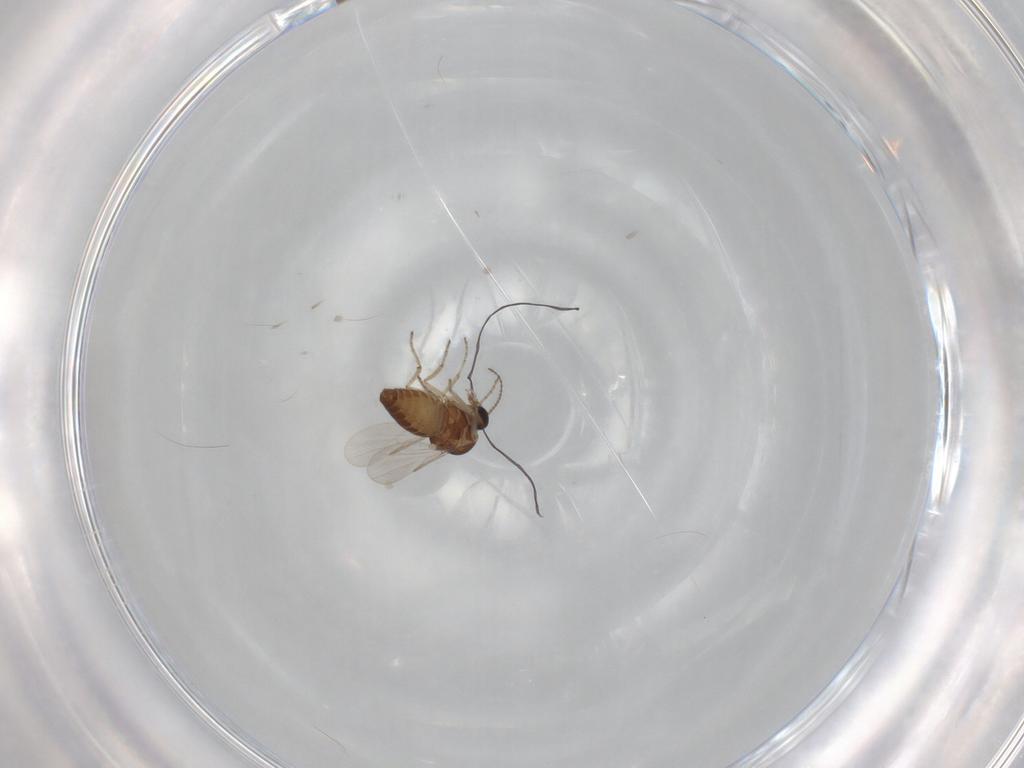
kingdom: Animalia
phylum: Arthropoda
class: Insecta
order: Diptera
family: Ceratopogonidae
